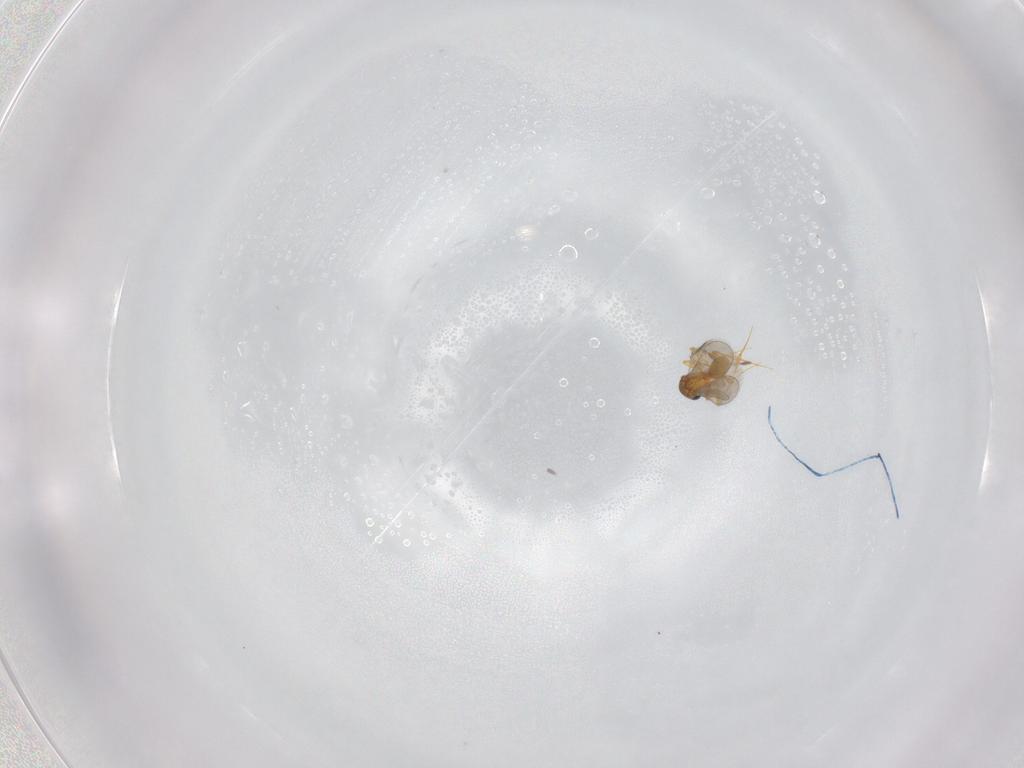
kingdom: Animalia
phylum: Arthropoda
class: Insecta
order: Hymenoptera
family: Platygastridae
